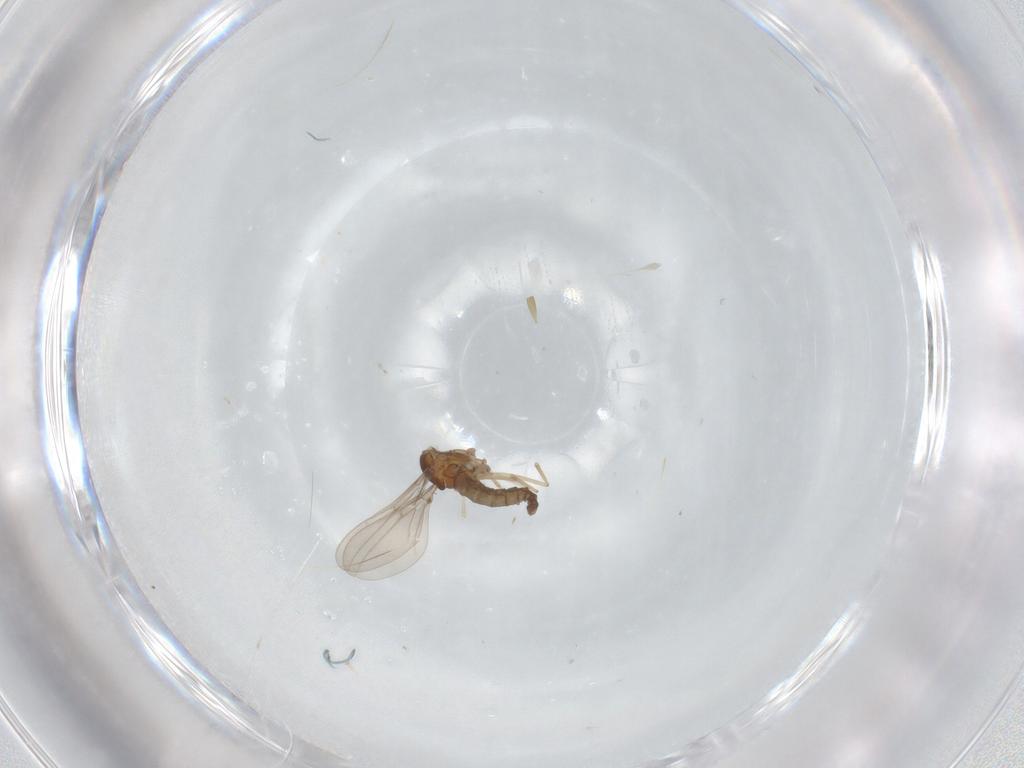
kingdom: Animalia
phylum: Arthropoda
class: Insecta
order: Diptera
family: Cecidomyiidae
